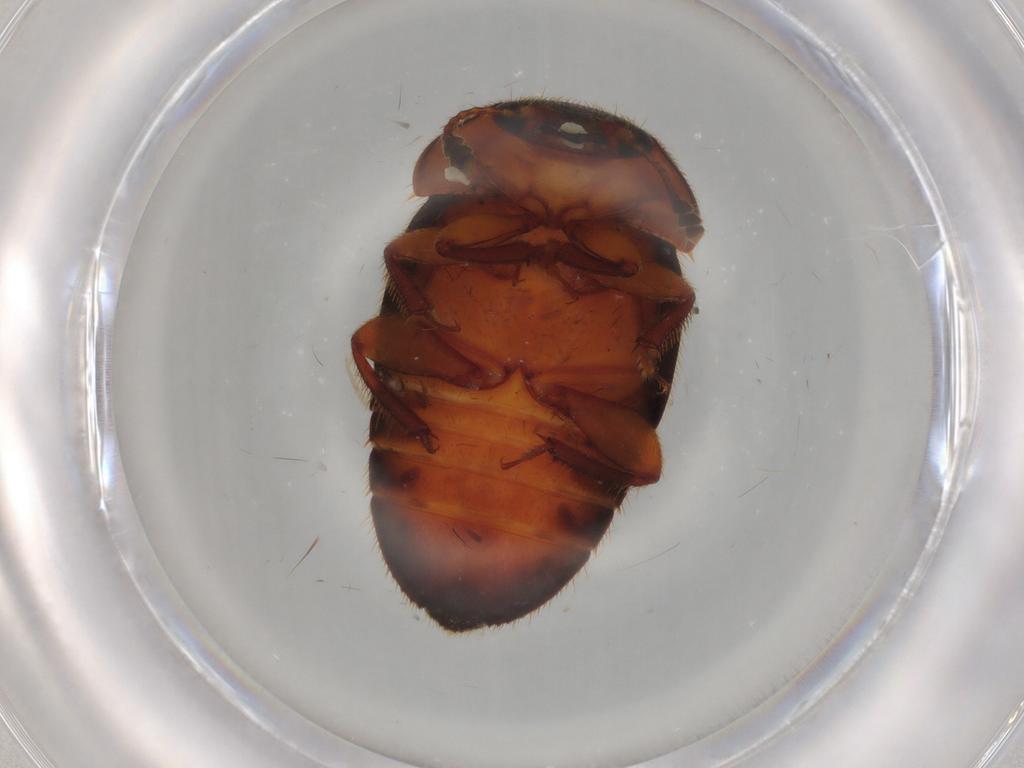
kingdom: Animalia
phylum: Arthropoda
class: Insecta
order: Coleoptera
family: Nitidulidae
